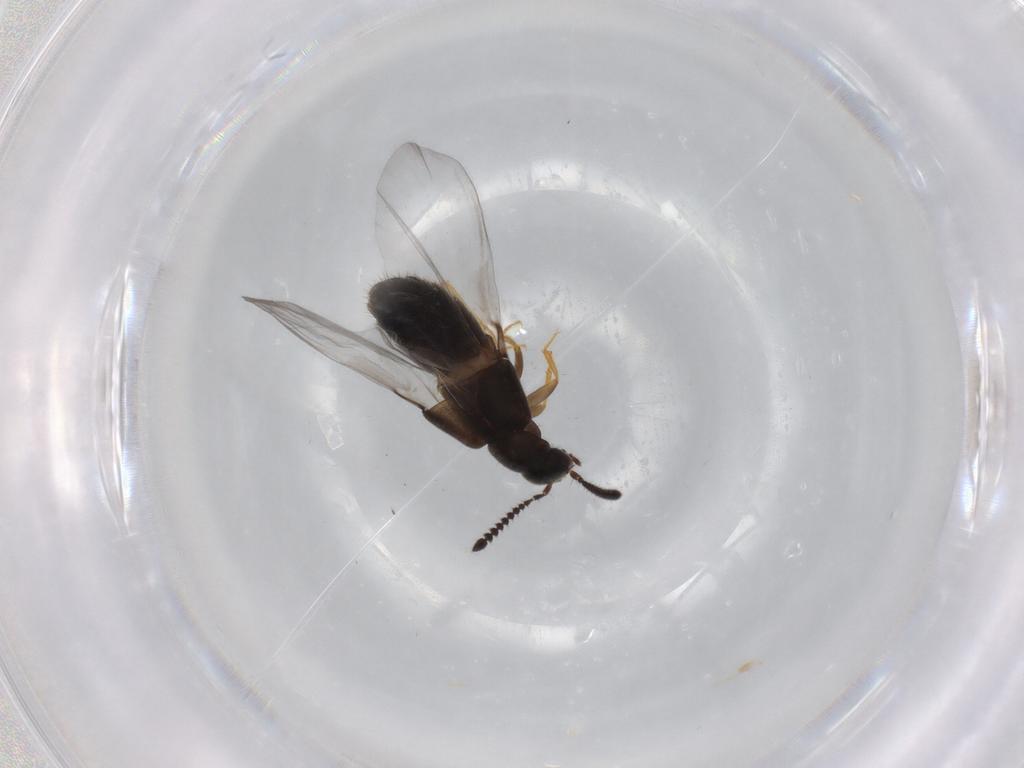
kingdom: Animalia
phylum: Arthropoda
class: Insecta
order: Coleoptera
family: Staphylinidae
